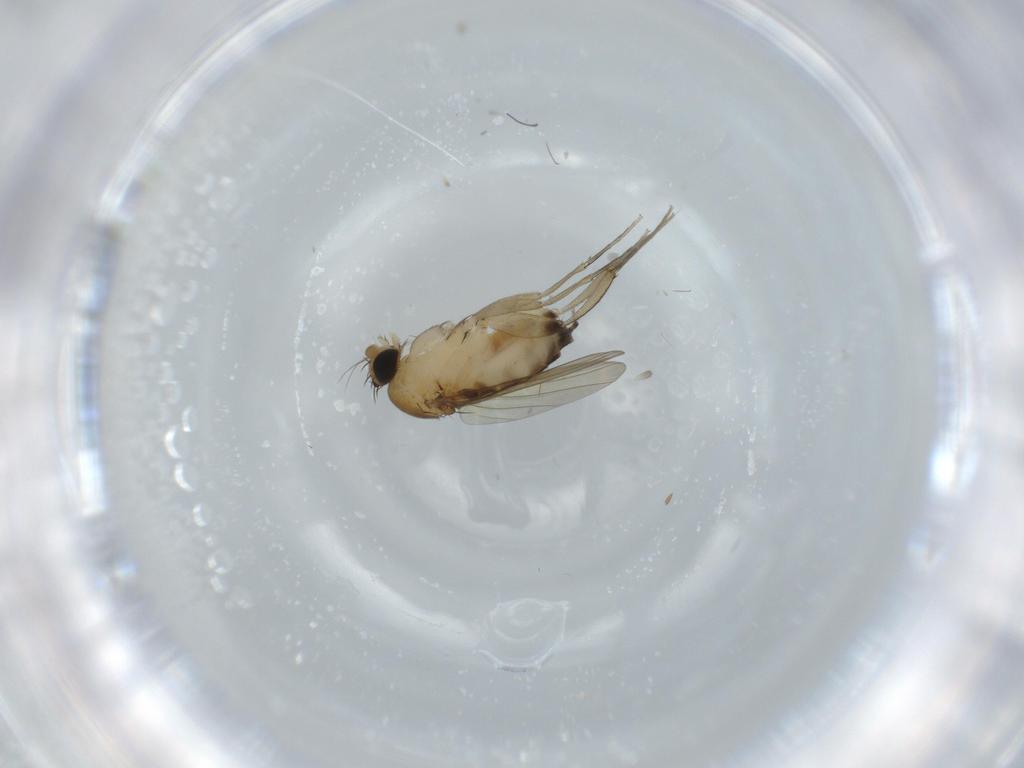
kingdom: Animalia
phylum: Arthropoda
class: Insecta
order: Diptera
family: Phoridae
